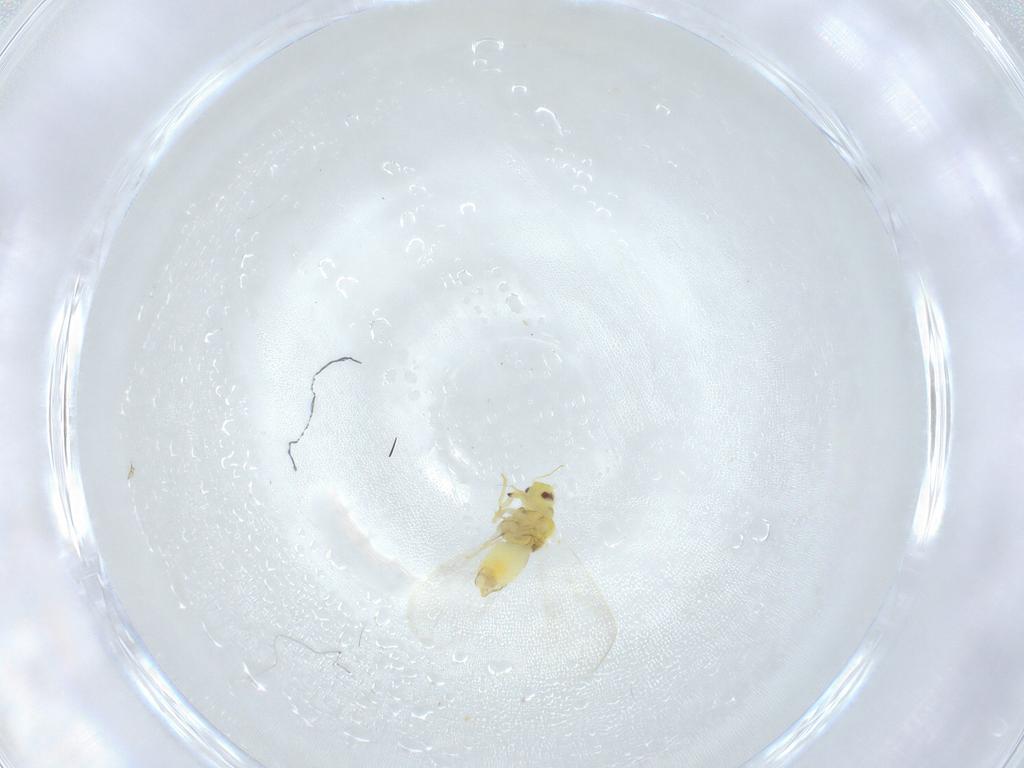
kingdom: Animalia
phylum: Arthropoda
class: Insecta
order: Hemiptera
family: Aleyrodidae
